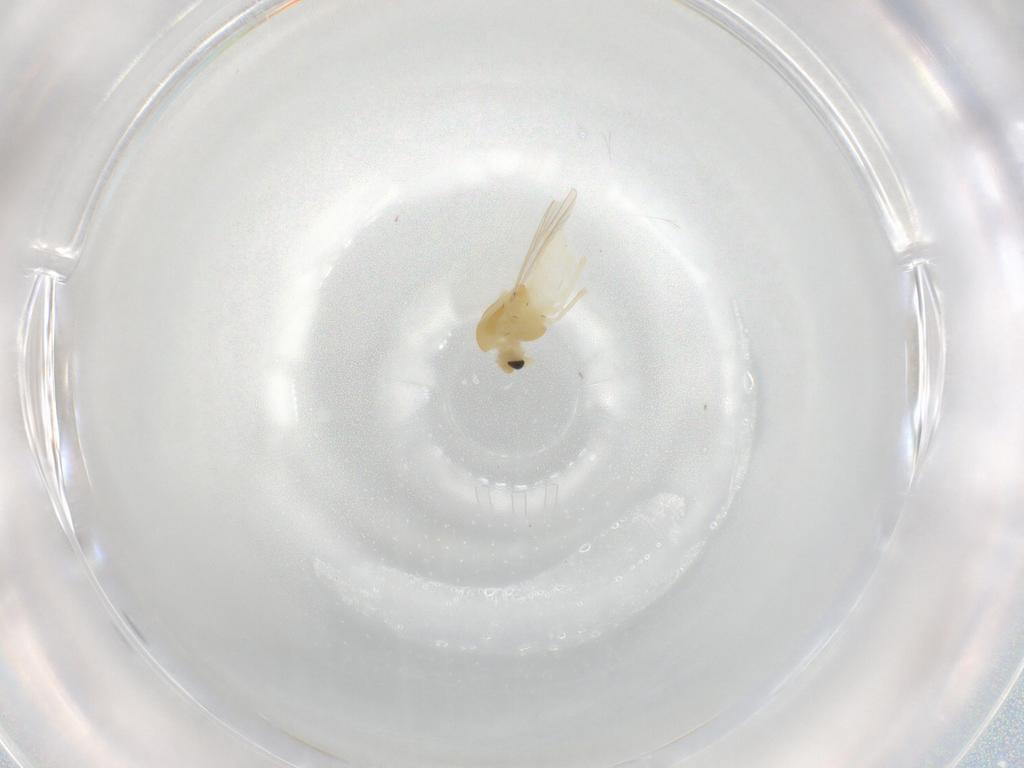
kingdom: Animalia
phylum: Arthropoda
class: Insecta
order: Diptera
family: Chironomidae
